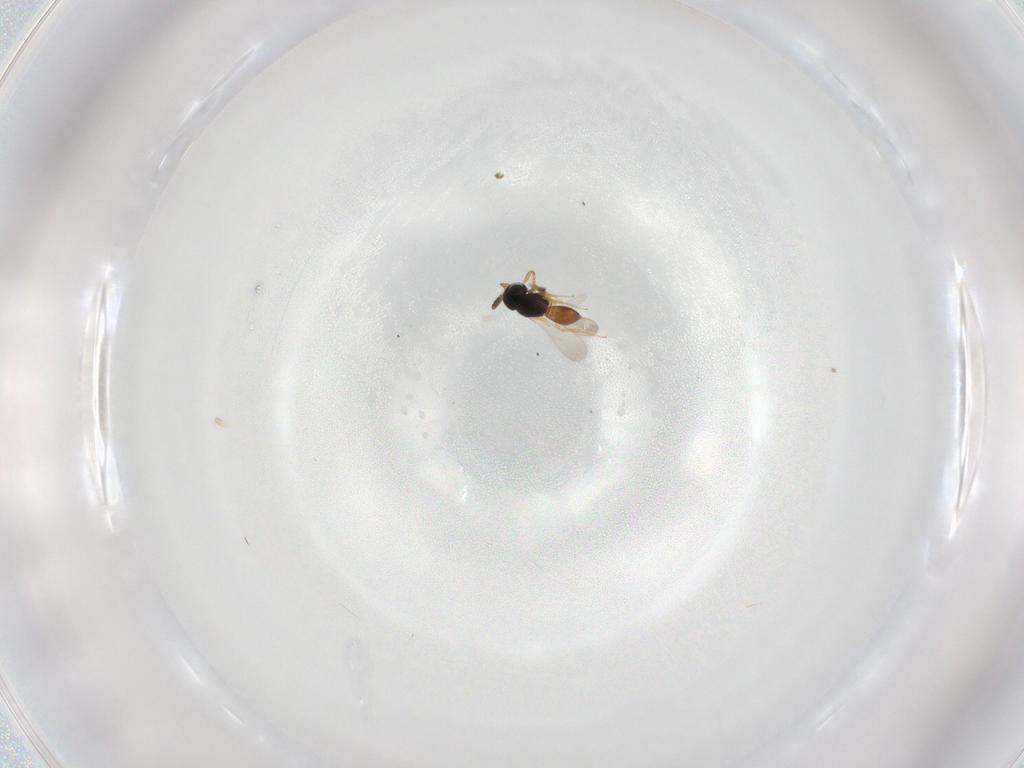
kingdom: Animalia
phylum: Arthropoda
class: Insecta
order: Hymenoptera
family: Scelionidae
